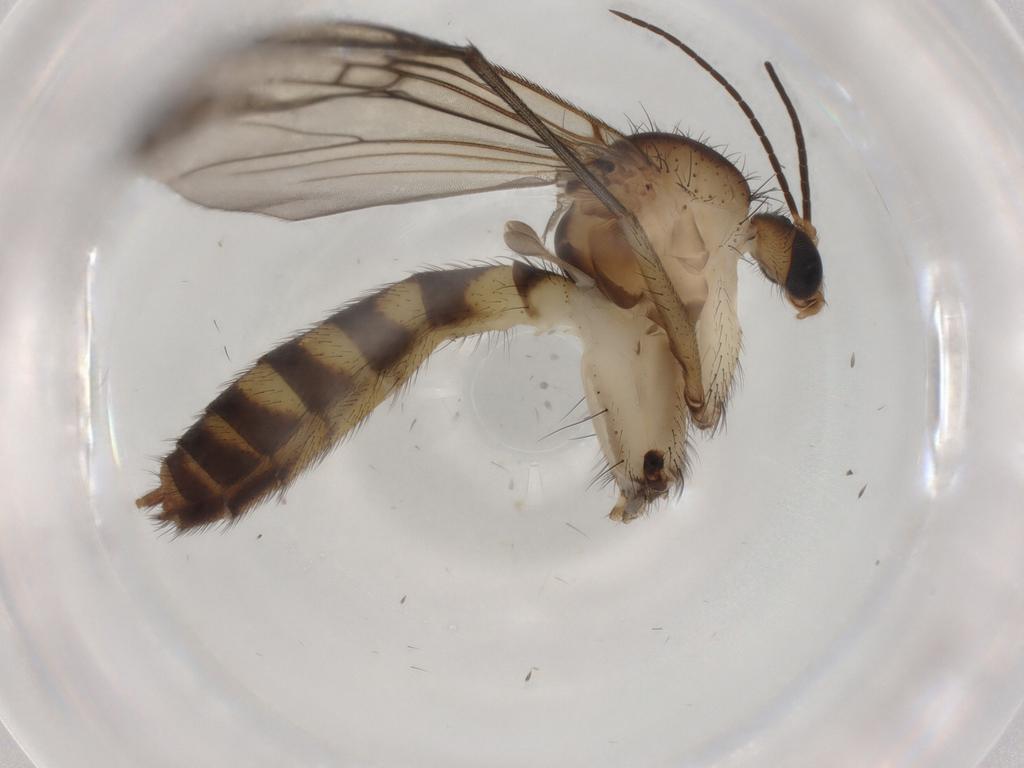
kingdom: Animalia
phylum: Arthropoda
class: Insecta
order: Diptera
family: Mycetophilidae
